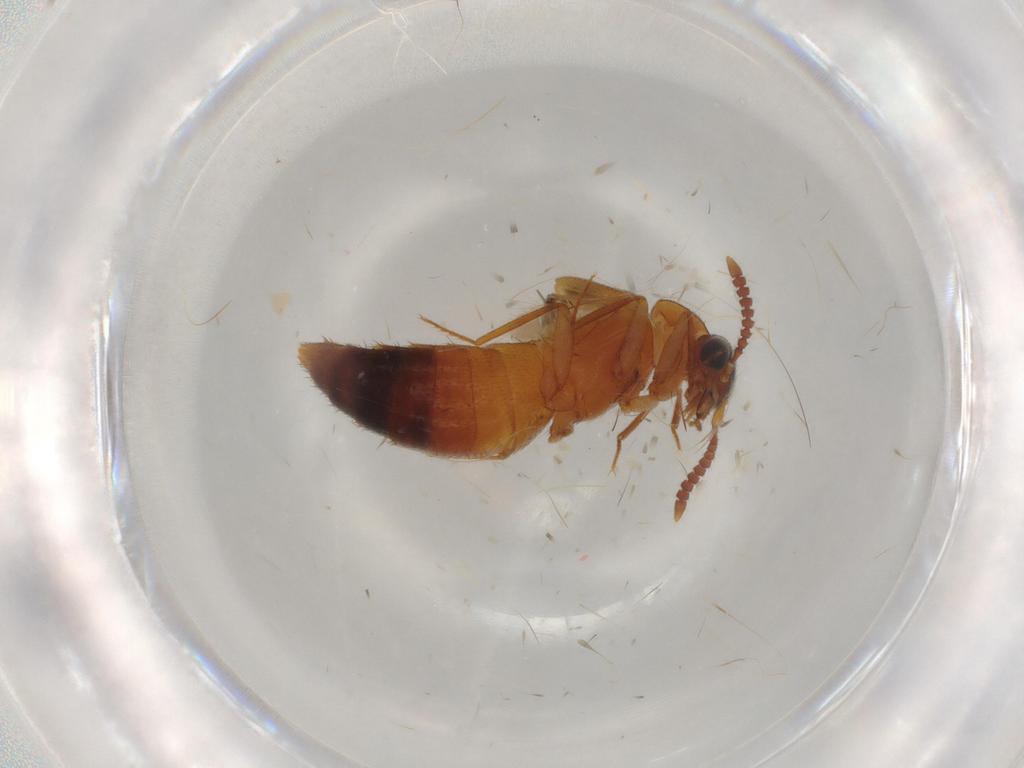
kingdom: Animalia
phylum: Arthropoda
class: Insecta
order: Coleoptera
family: Staphylinidae
